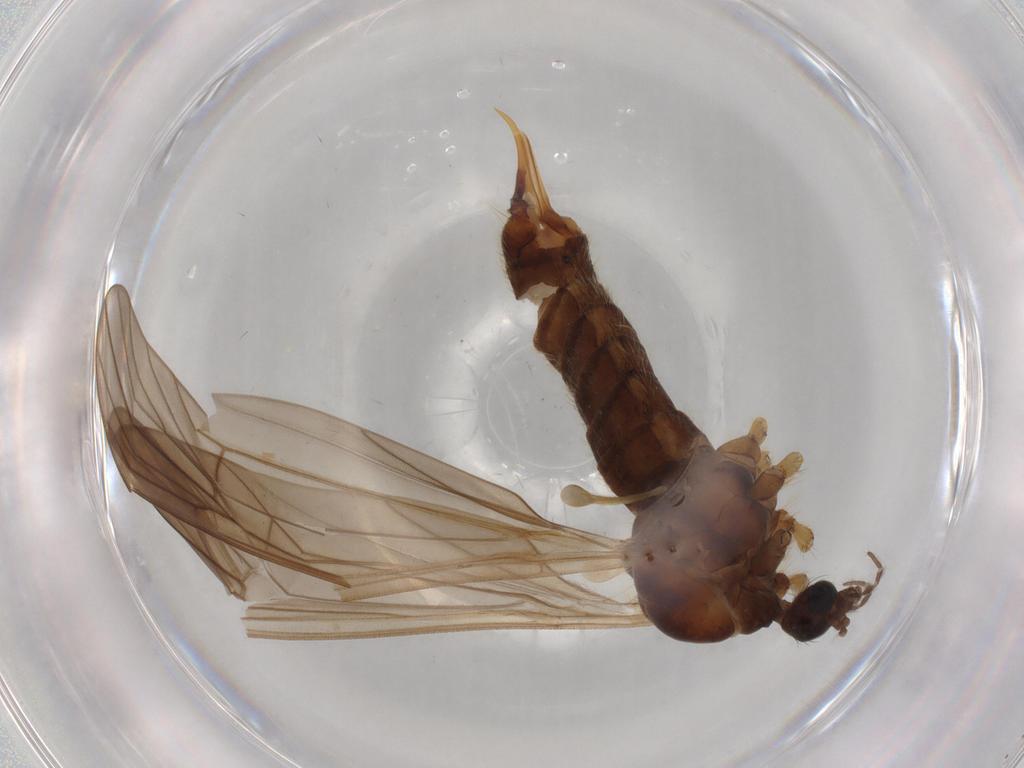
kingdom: Animalia
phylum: Arthropoda
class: Insecta
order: Diptera
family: Anisopodidae
